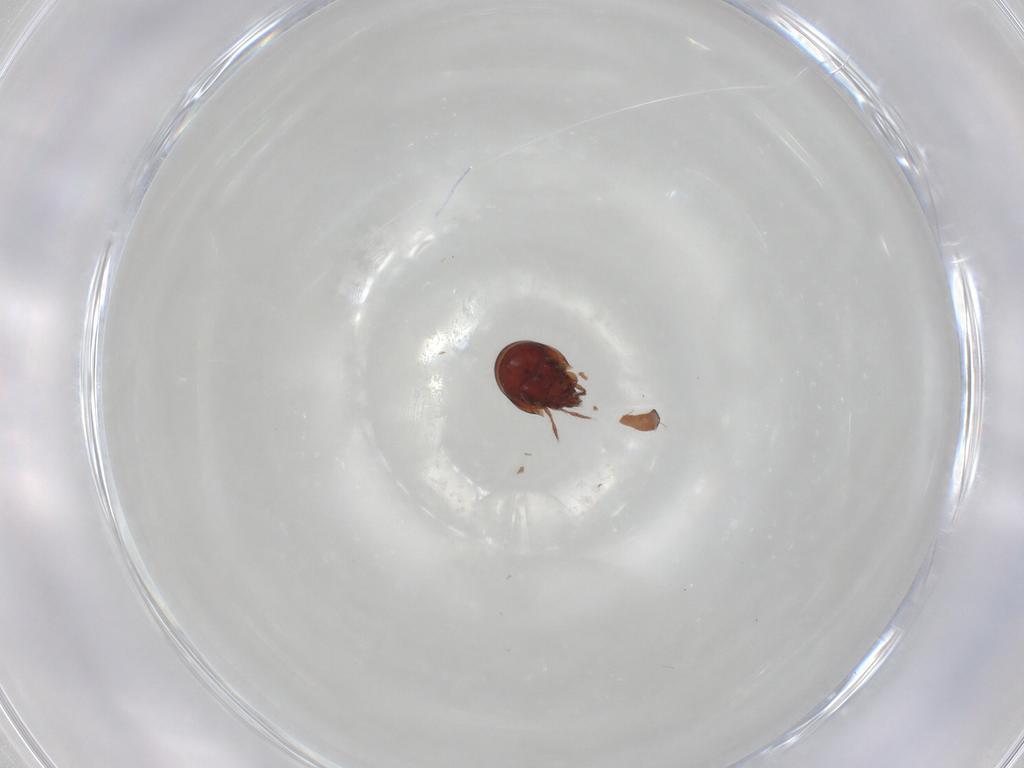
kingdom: Animalia
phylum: Arthropoda
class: Arachnida
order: Sarcoptiformes
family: Caloppiidae
